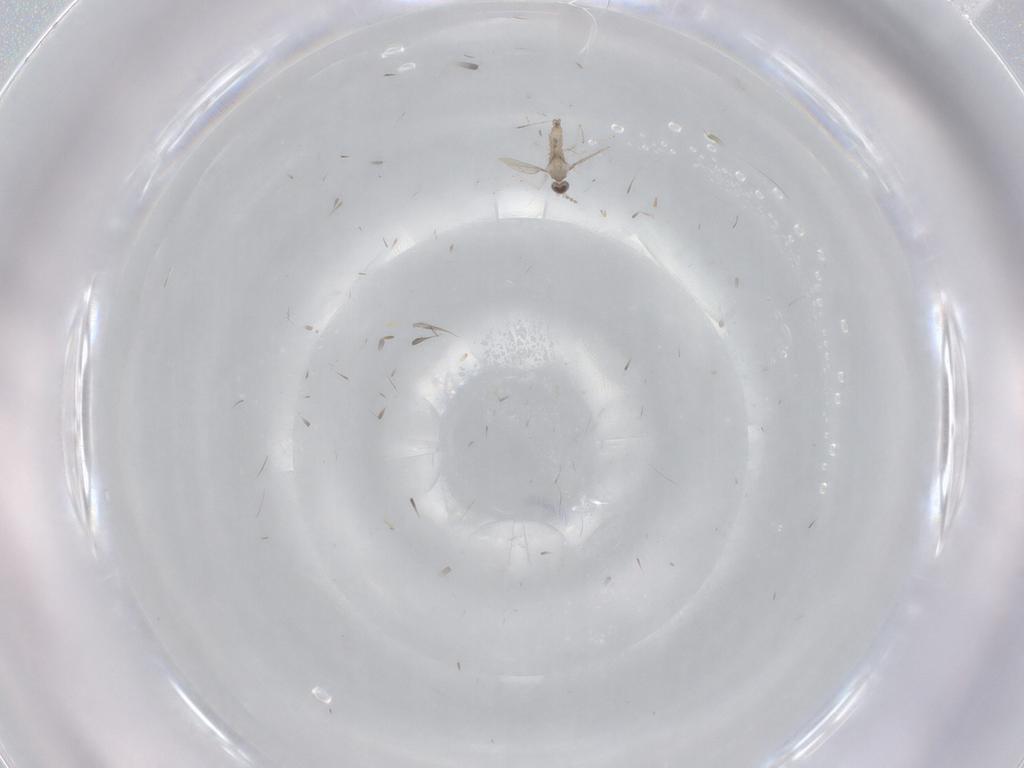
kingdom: Animalia
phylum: Arthropoda
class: Insecta
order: Diptera
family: Cecidomyiidae
